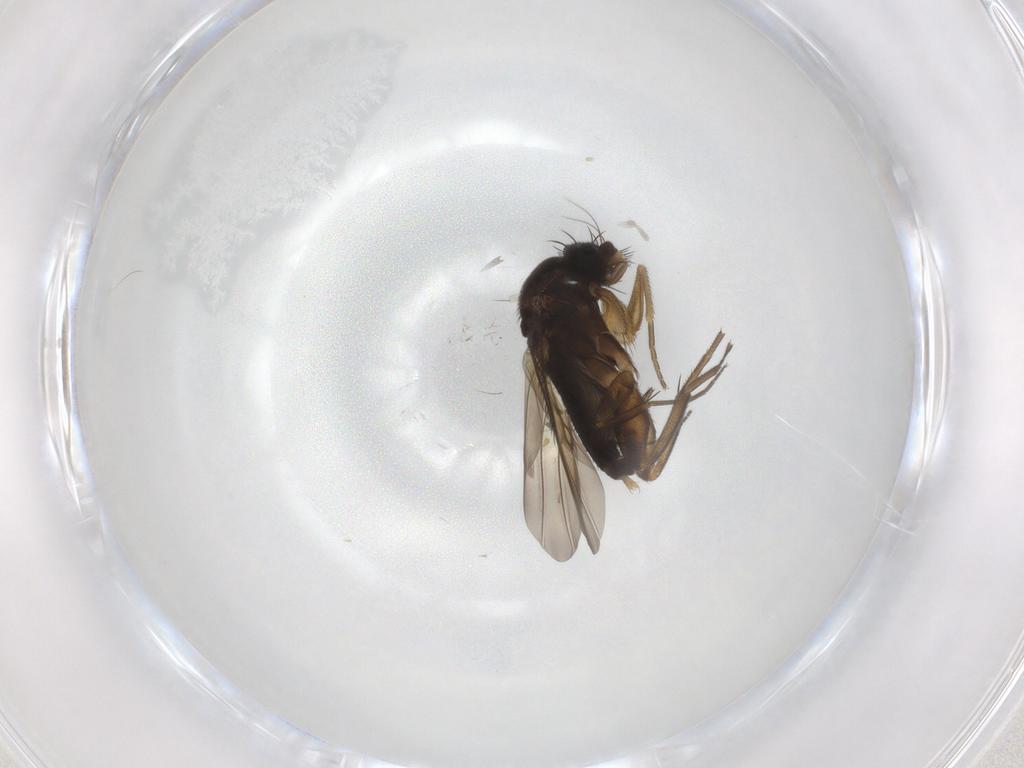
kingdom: Animalia
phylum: Arthropoda
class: Insecta
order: Diptera
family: Phoridae
